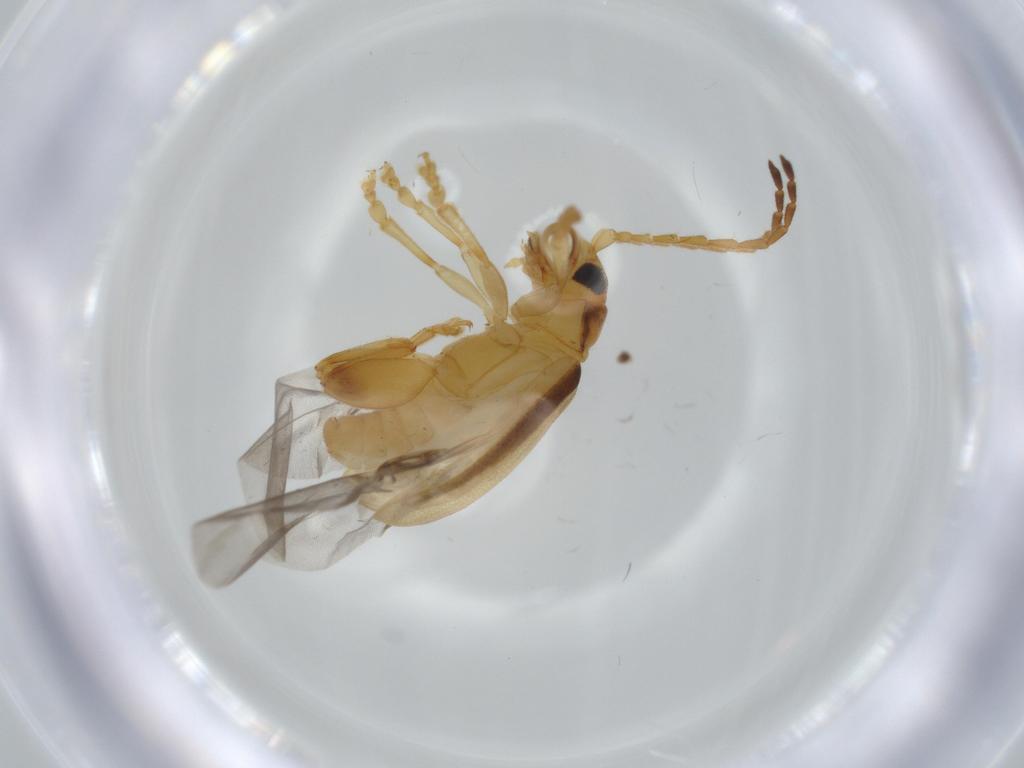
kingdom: Animalia
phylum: Arthropoda
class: Insecta
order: Coleoptera
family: Chrysomelidae
